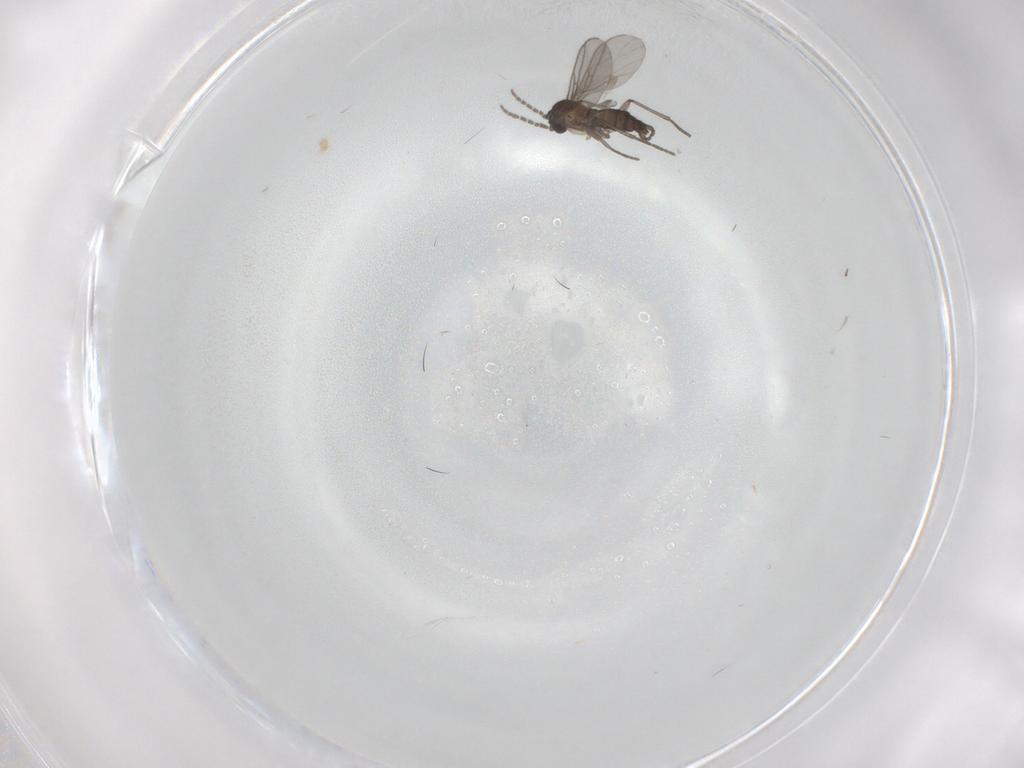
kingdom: Animalia
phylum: Arthropoda
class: Insecta
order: Diptera
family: Sciaridae
